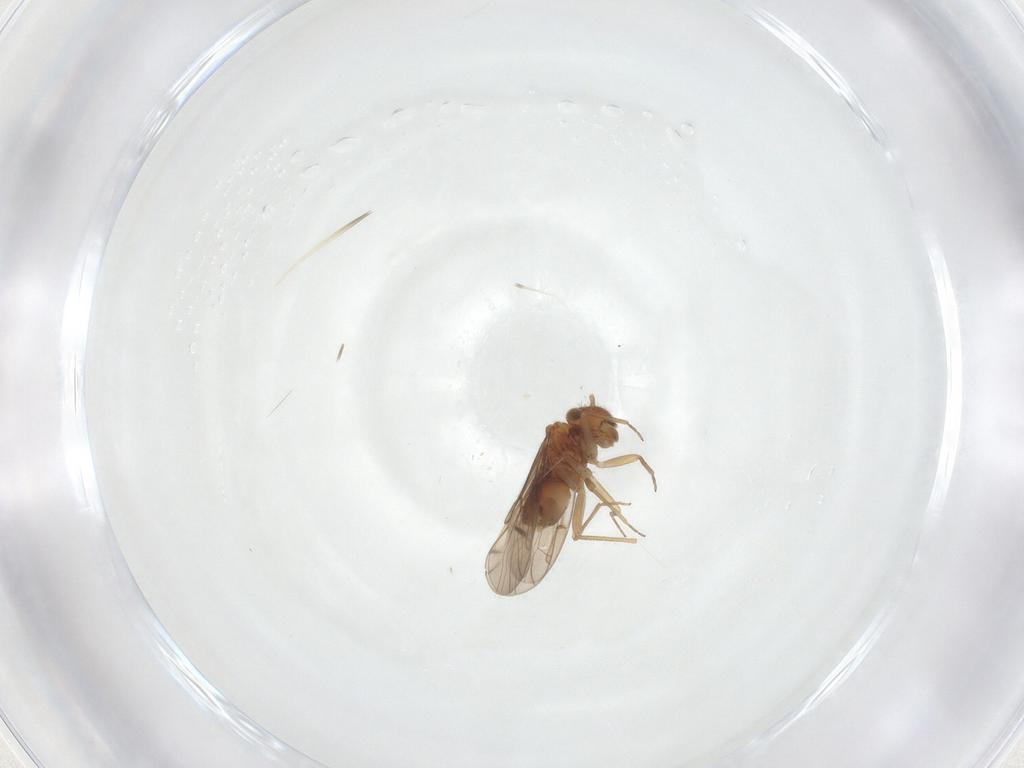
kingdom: Animalia
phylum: Arthropoda
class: Insecta
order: Psocodea
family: Ectopsocidae
